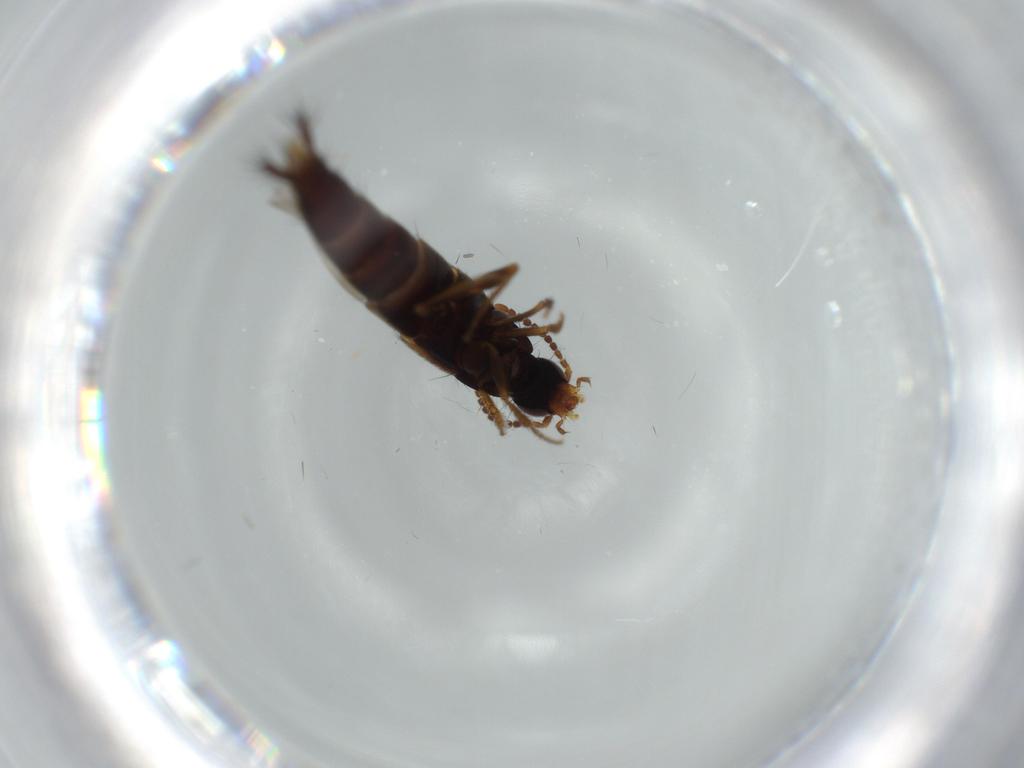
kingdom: Animalia
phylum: Arthropoda
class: Insecta
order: Coleoptera
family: Staphylinidae
